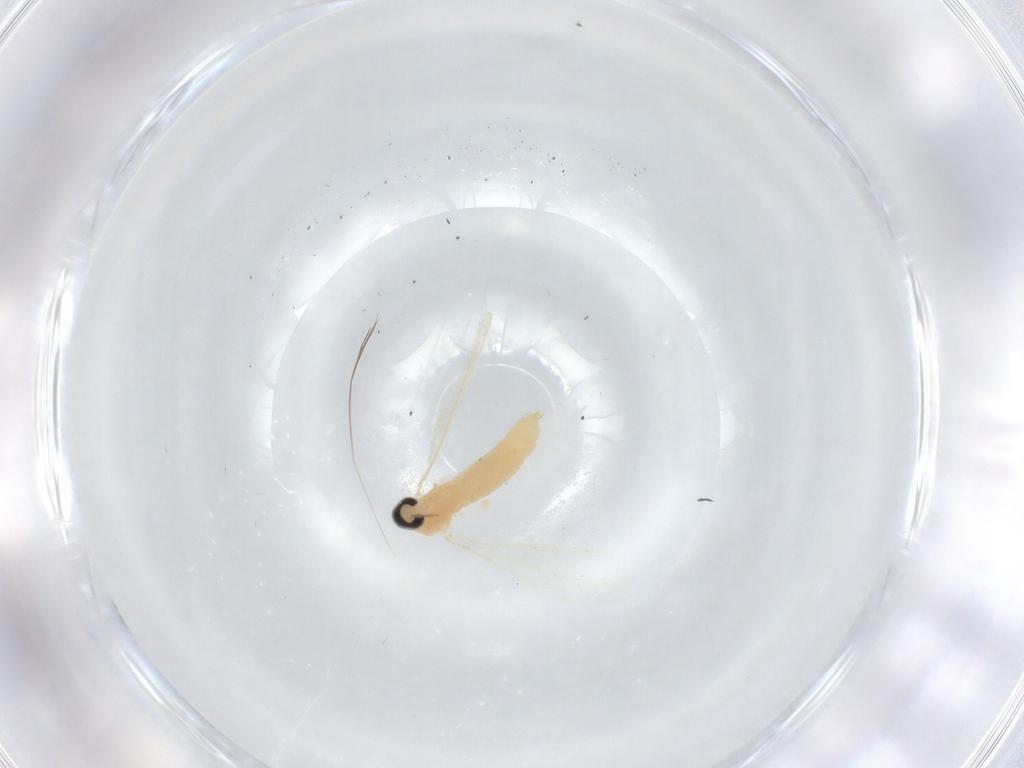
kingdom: Animalia
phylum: Arthropoda
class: Insecta
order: Diptera
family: Cecidomyiidae
